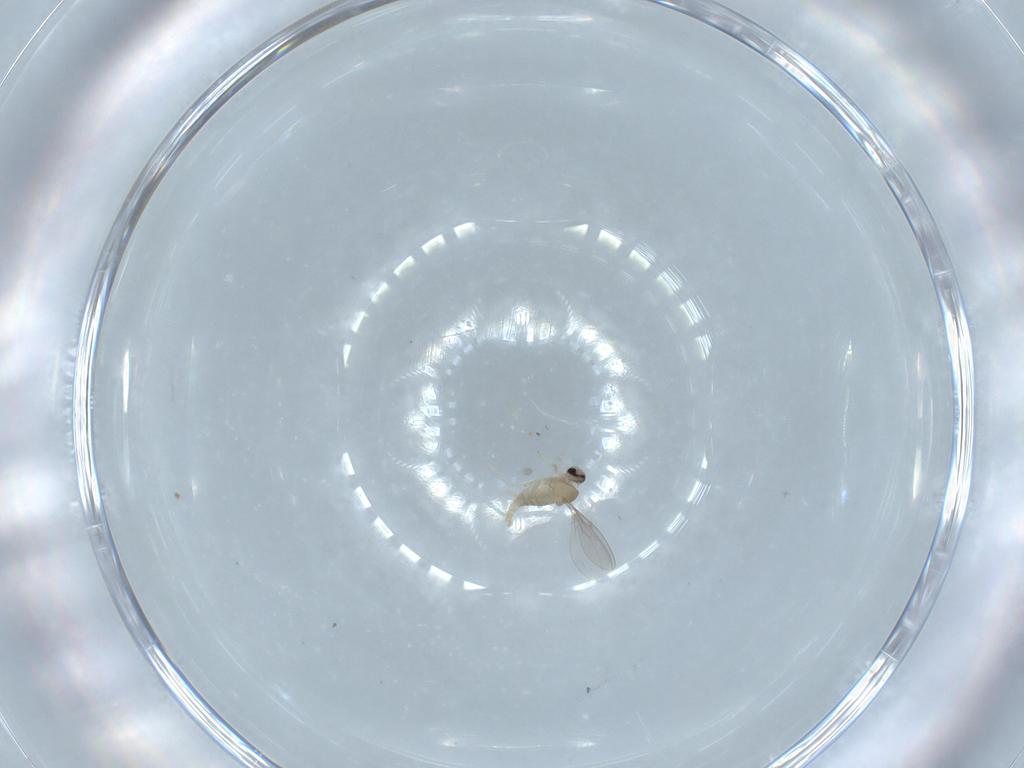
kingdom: Animalia
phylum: Arthropoda
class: Insecta
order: Diptera
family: Cecidomyiidae
